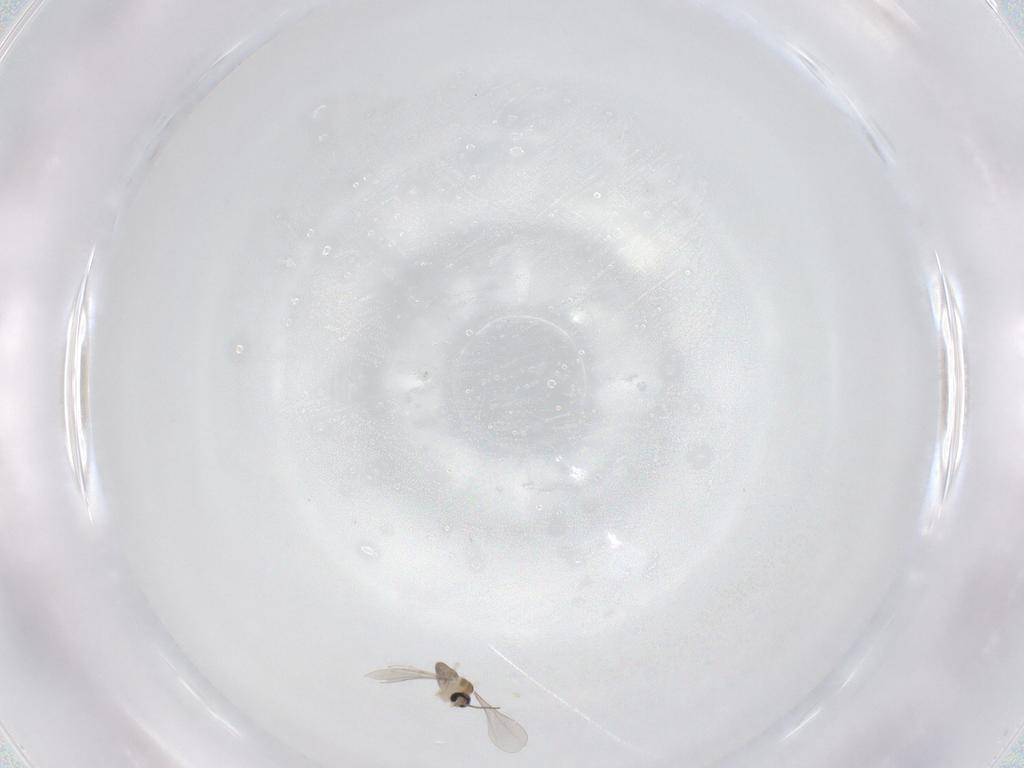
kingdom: Animalia
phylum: Arthropoda
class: Insecta
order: Diptera
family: Cecidomyiidae
